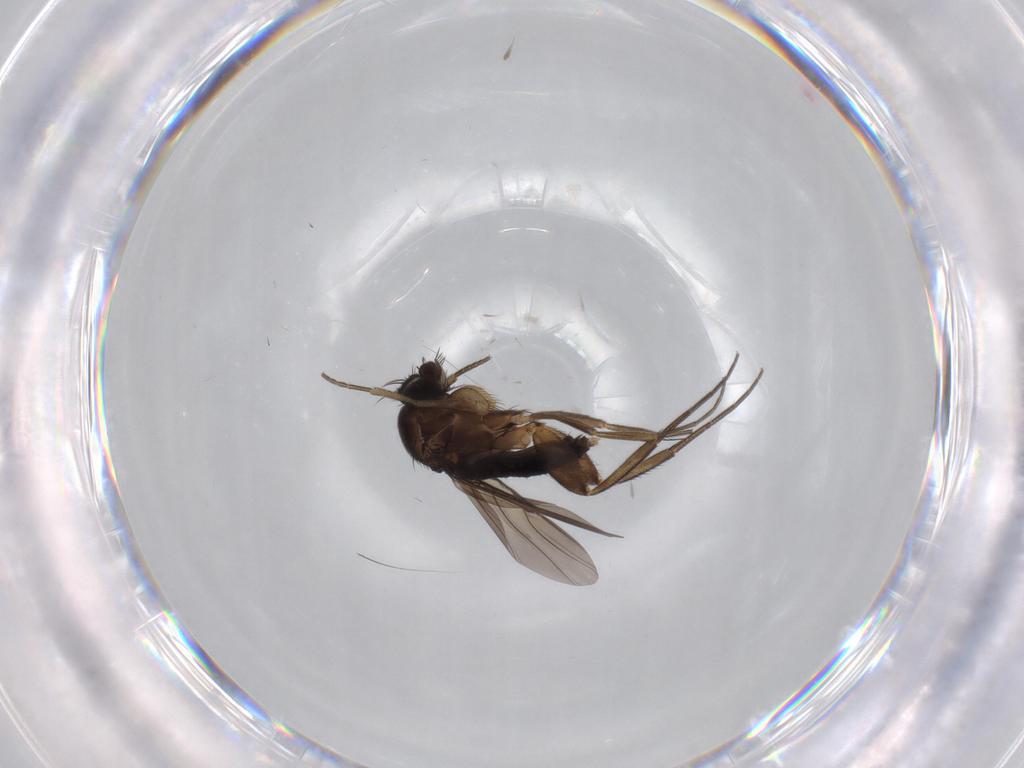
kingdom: Animalia
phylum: Arthropoda
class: Insecta
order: Diptera
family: Phoridae
